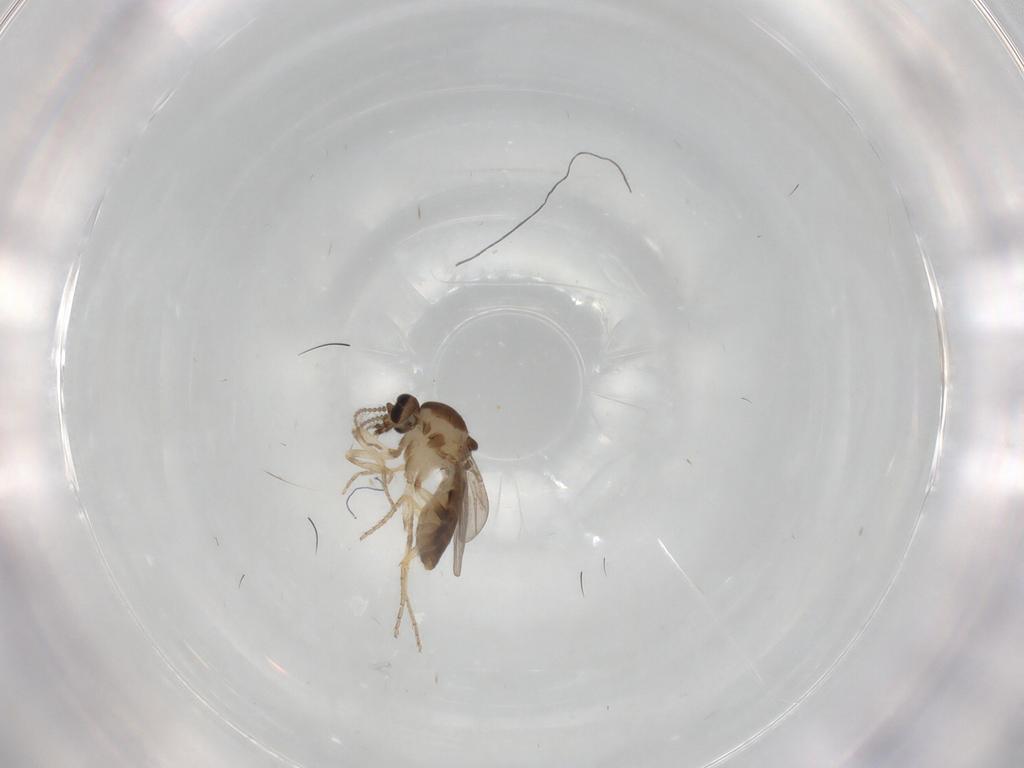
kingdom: Animalia
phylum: Arthropoda
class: Insecta
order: Diptera
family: Ceratopogonidae
